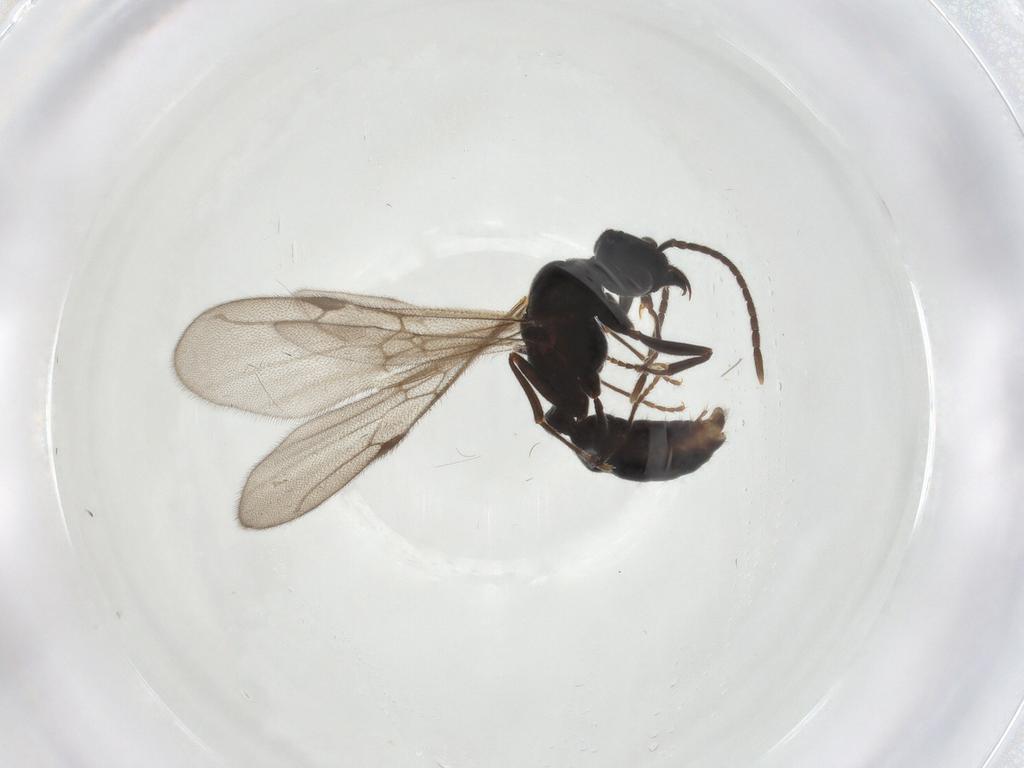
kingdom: Animalia
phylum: Arthropoda
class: Insecta
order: Hymenoptera
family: Formicidae
